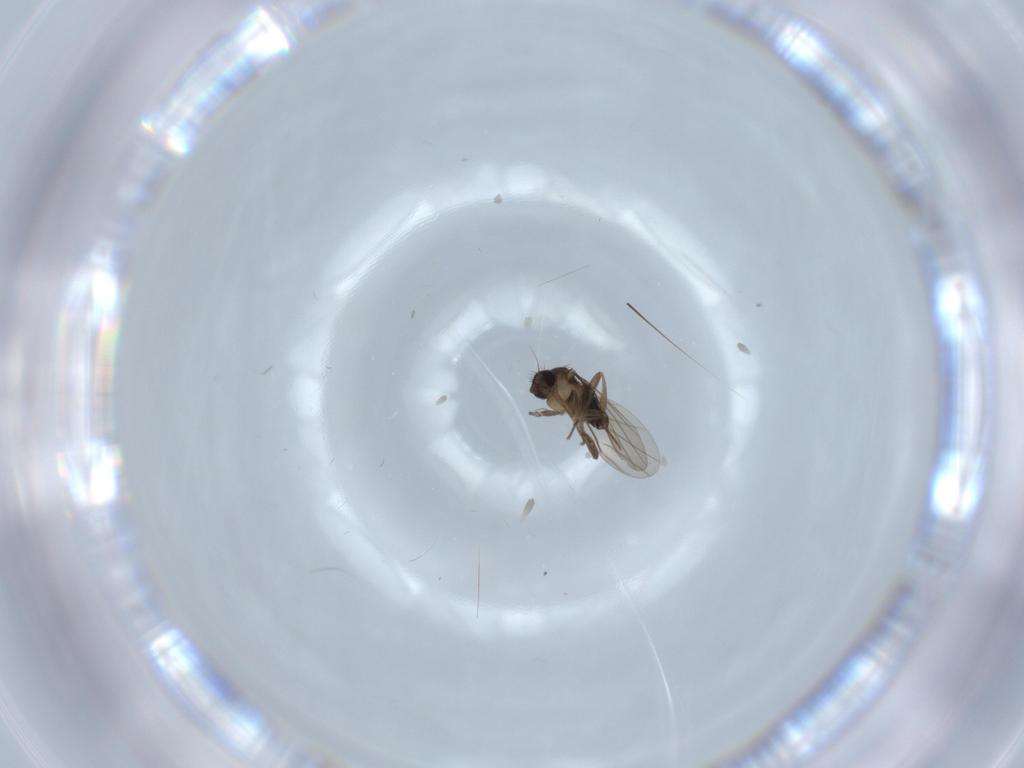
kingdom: Animalia
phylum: Arthropoda
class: Insecta
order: Diptera
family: Phoridae
